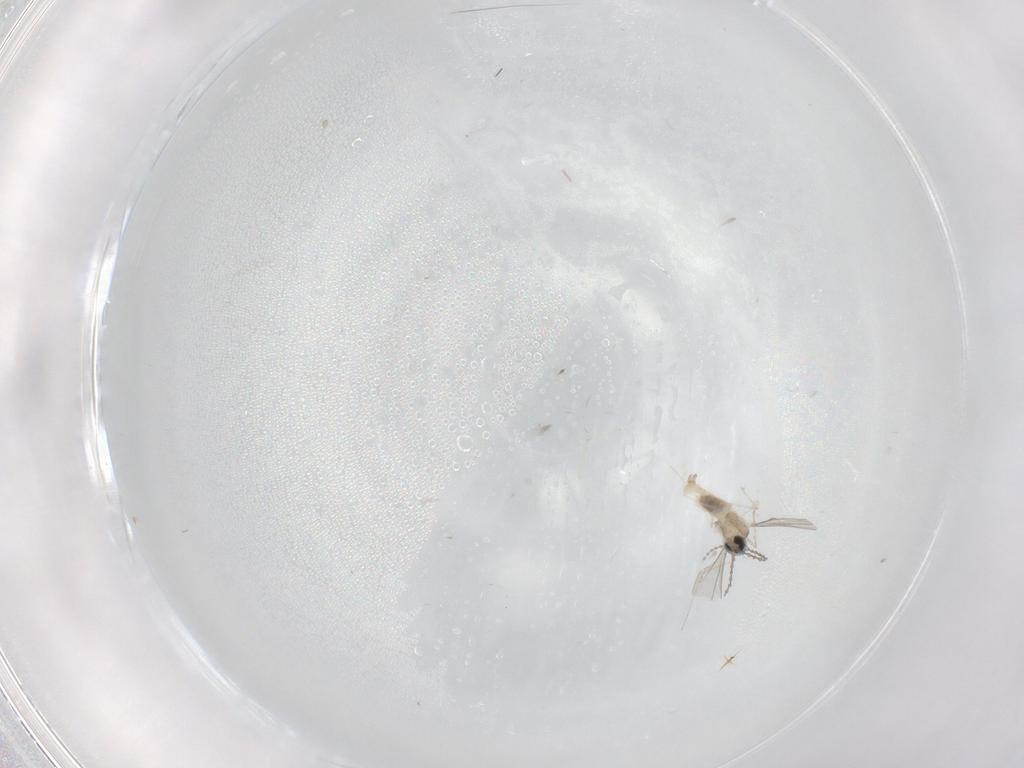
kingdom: Animalia
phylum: Arthropoda
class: Insecta
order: Diptera
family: Cecidomyiidae
